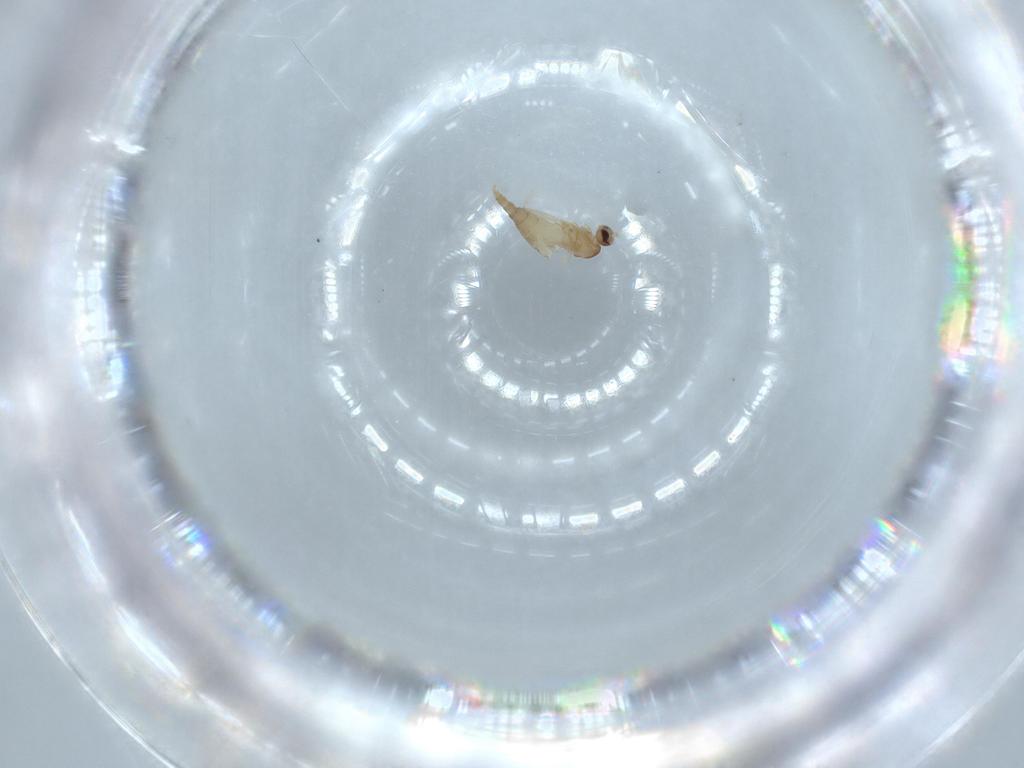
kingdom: Animalia
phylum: Arthropoda
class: Insecta
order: Diptera
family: Cecidomyiidae
